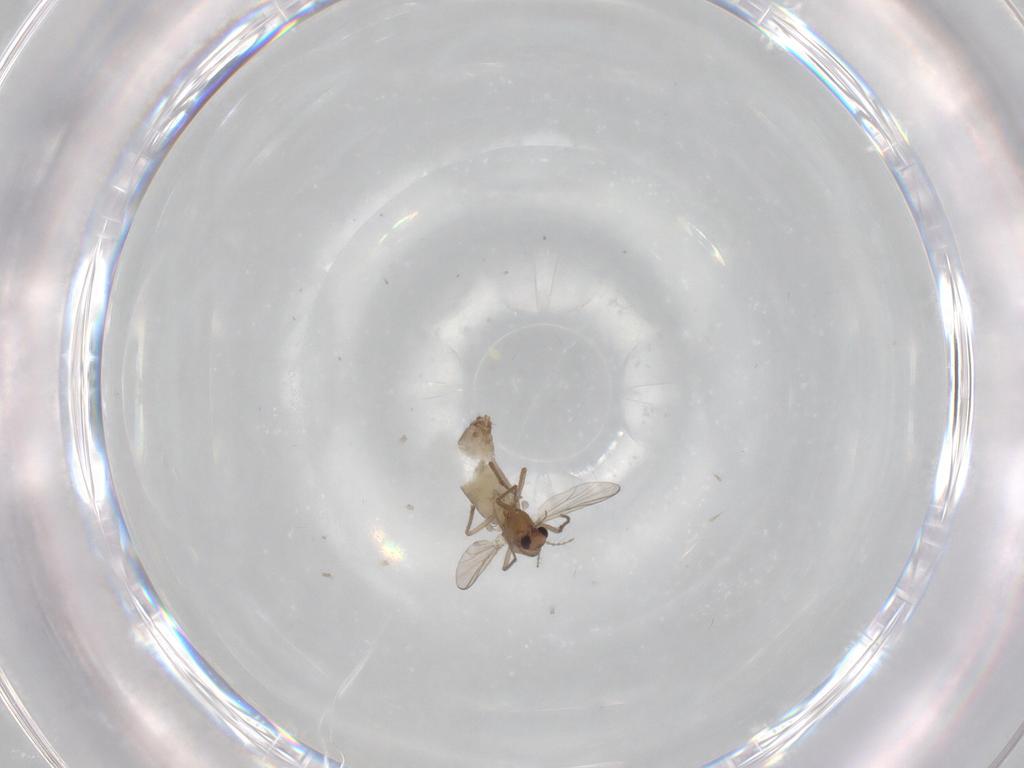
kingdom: Animalia
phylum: Arthropoda
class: Insecta
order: Diptera
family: Chironomidae
